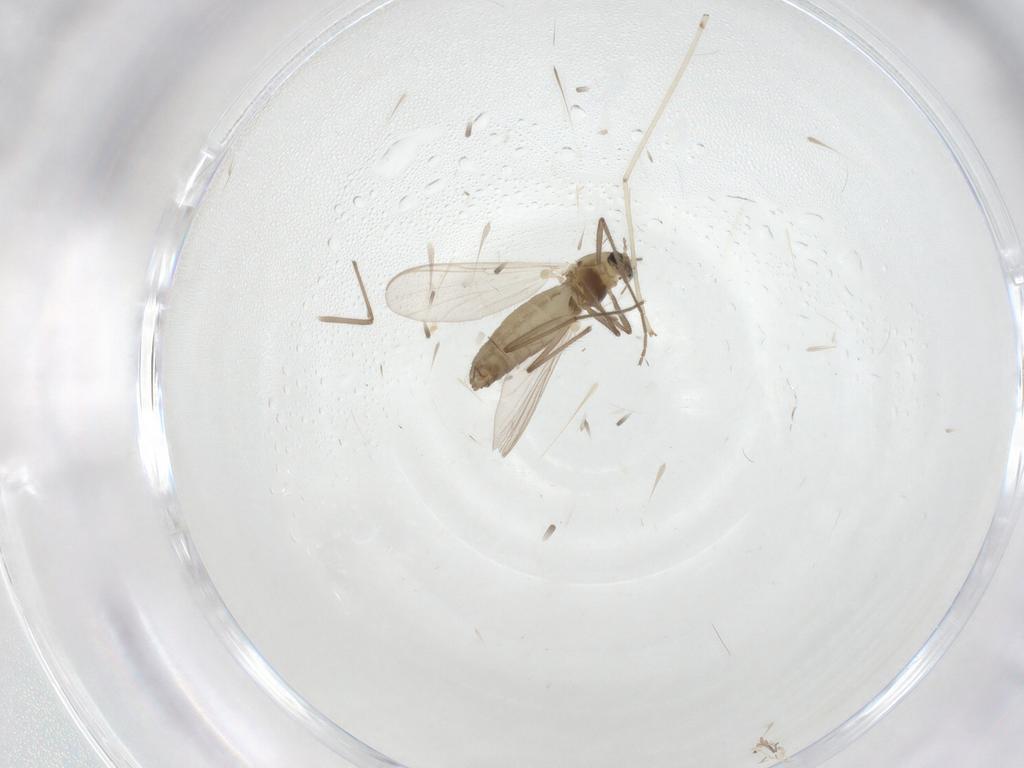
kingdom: Animalia
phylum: Arthropoda
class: Insecta
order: Diptera
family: Chironomidae
